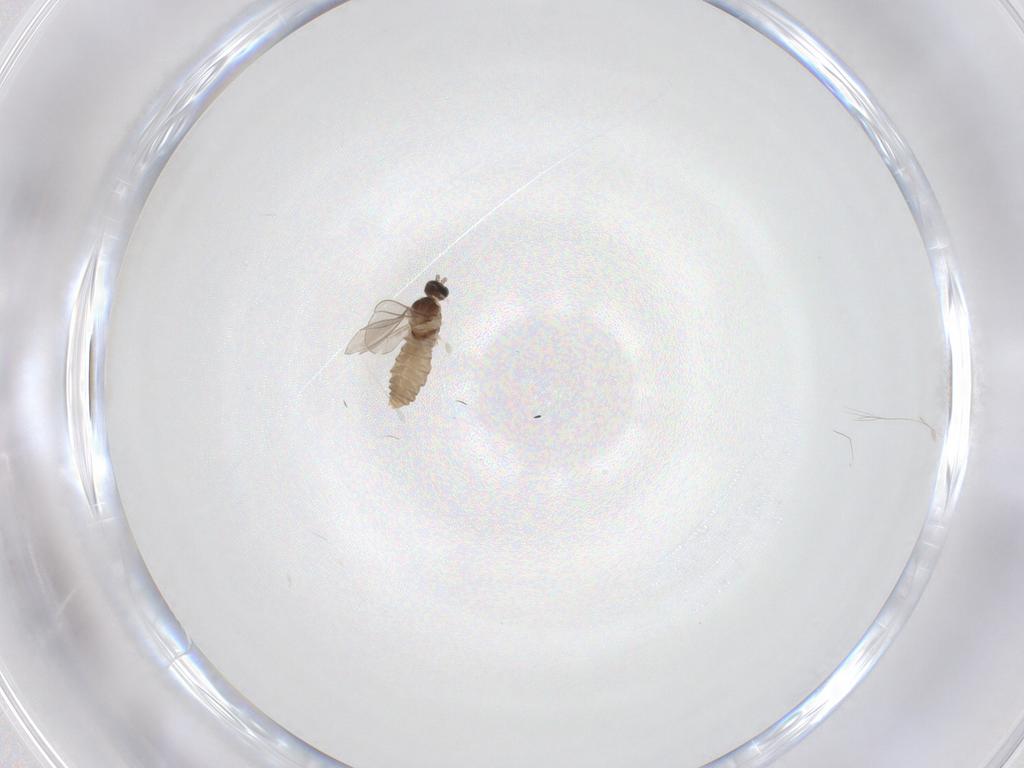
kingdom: Animalia
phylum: Arthropoda
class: Insecta
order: Diptera
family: Cecidomyiidae
